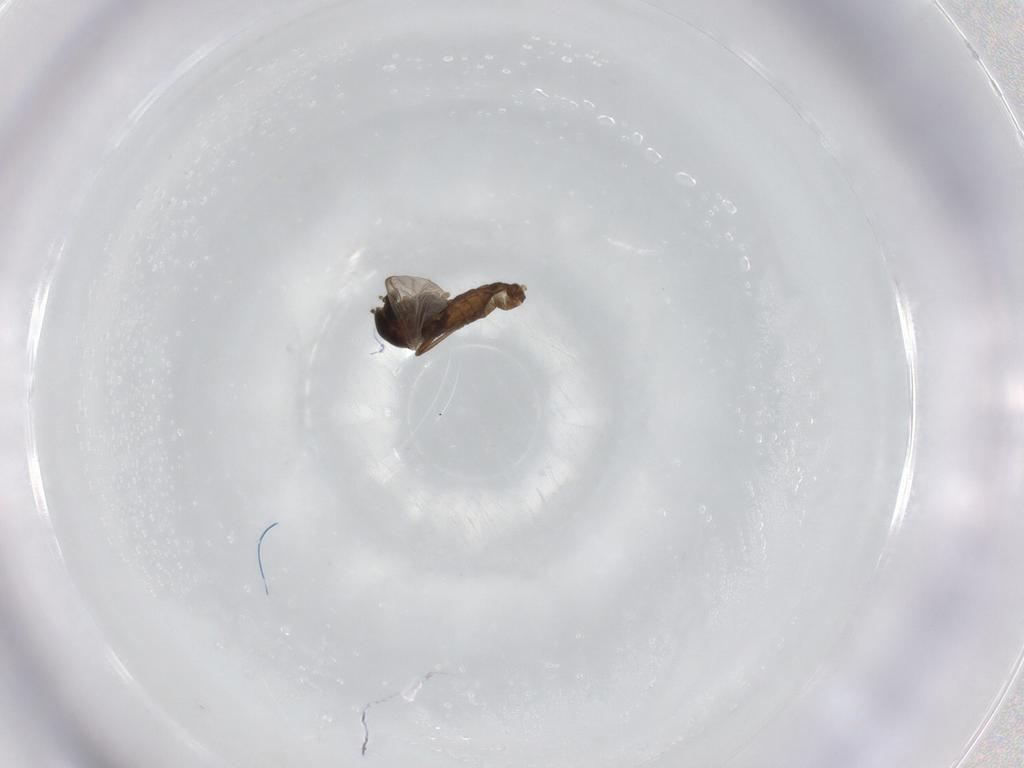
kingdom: Animalia
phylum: Arthropoda
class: Insecta
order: Diptera
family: Chironomidae
